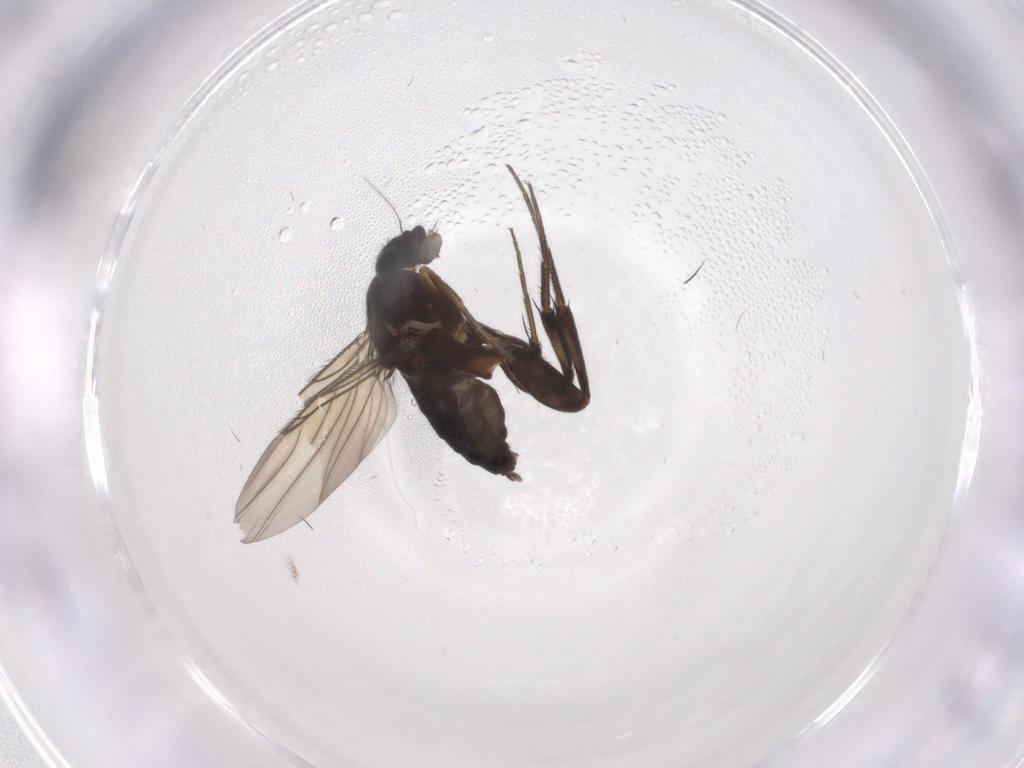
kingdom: Animalia
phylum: Arthropoda
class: Insecta
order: Diptera
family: Phoridae
